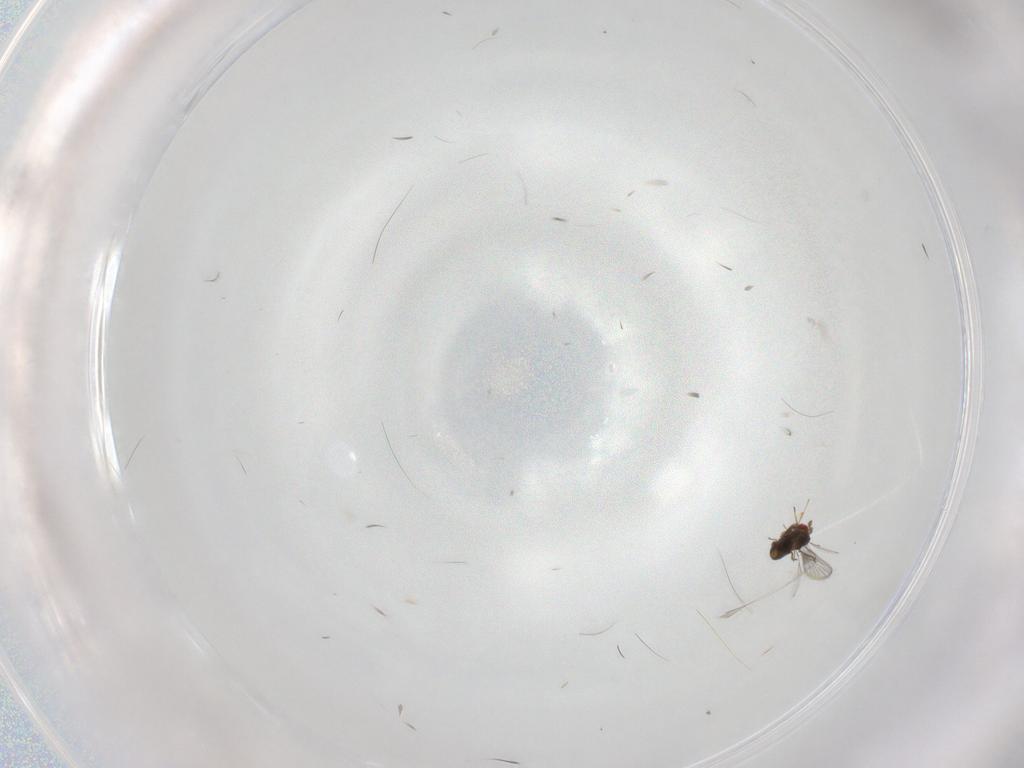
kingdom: Animalia
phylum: Arthropoda
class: Insecta
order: Hymenoptera
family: Trichogrammatidae
